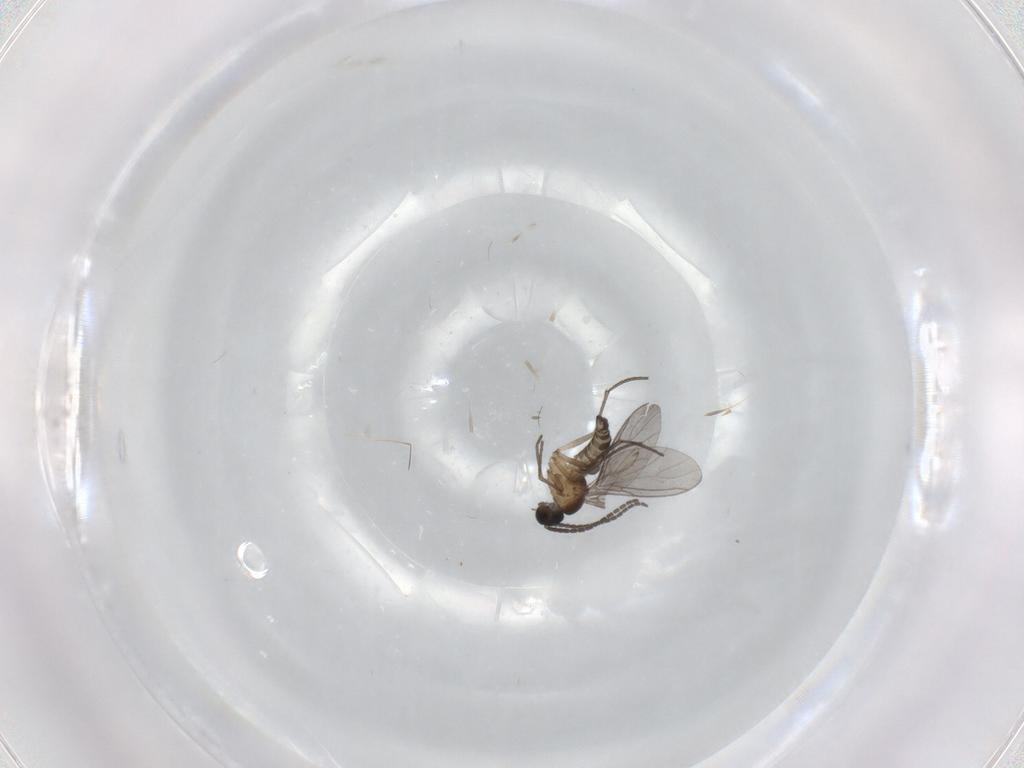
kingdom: Animalia
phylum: Arthropoda
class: Insecta
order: Diptera
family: Sciaridae
